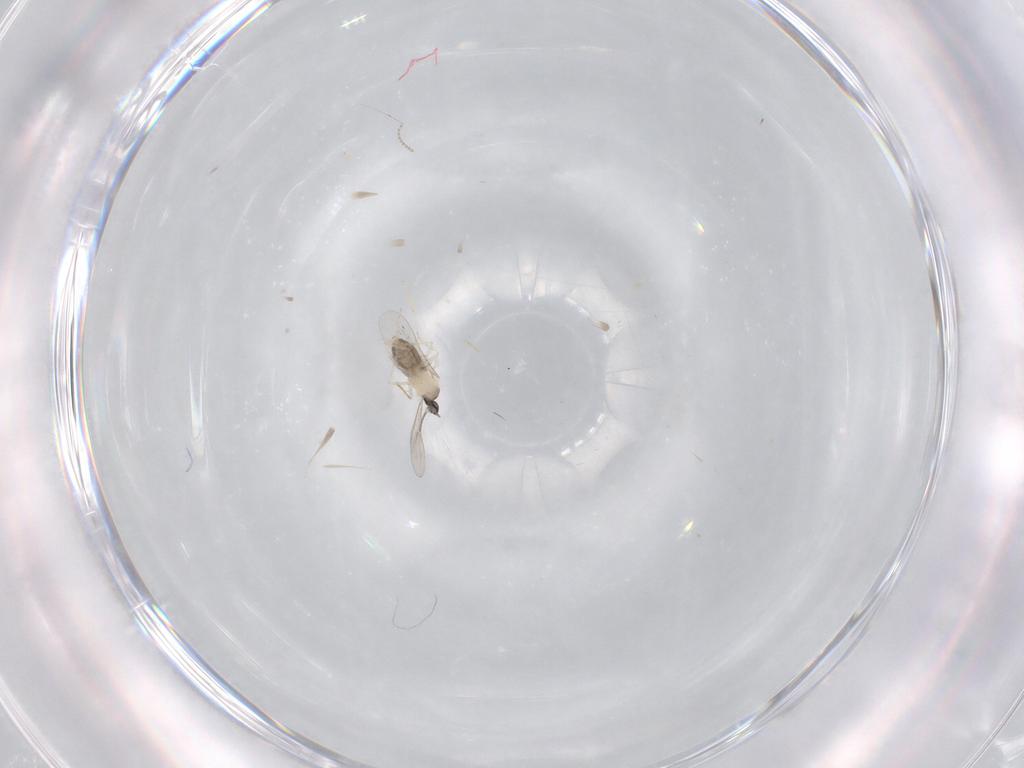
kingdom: Animalia
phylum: Arthropoda
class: Insecta
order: Diptera
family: Cecidomyiidae
